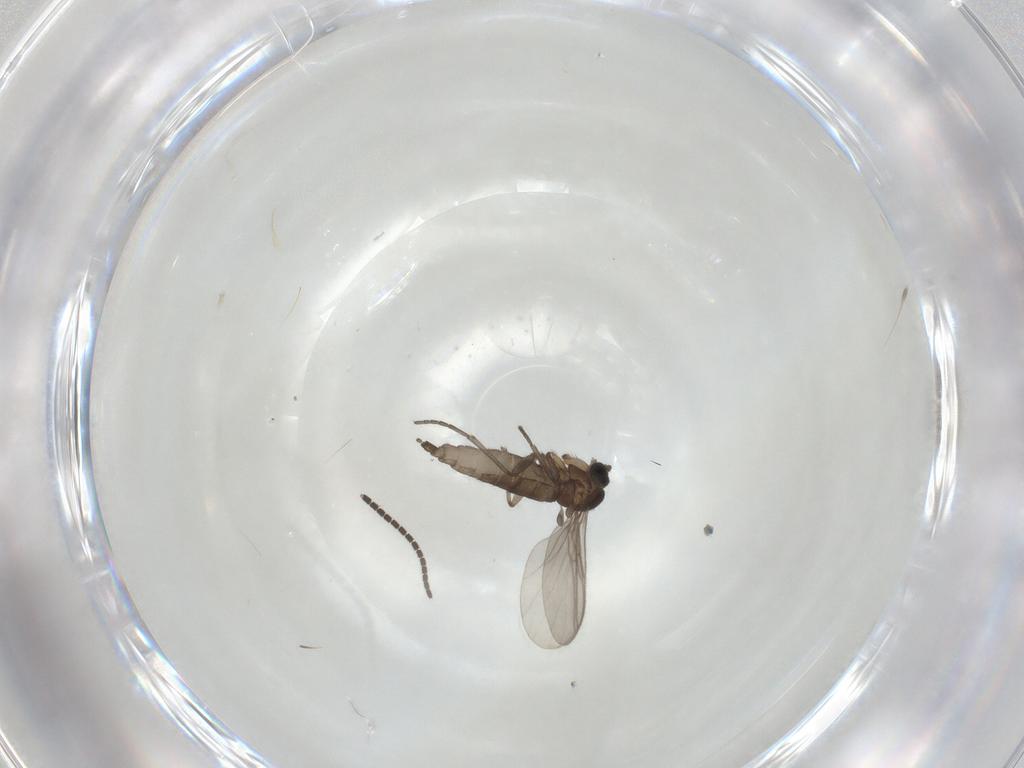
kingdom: Animalia
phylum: Arthropoda
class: Insecta
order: Diptera
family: Sciaridae
